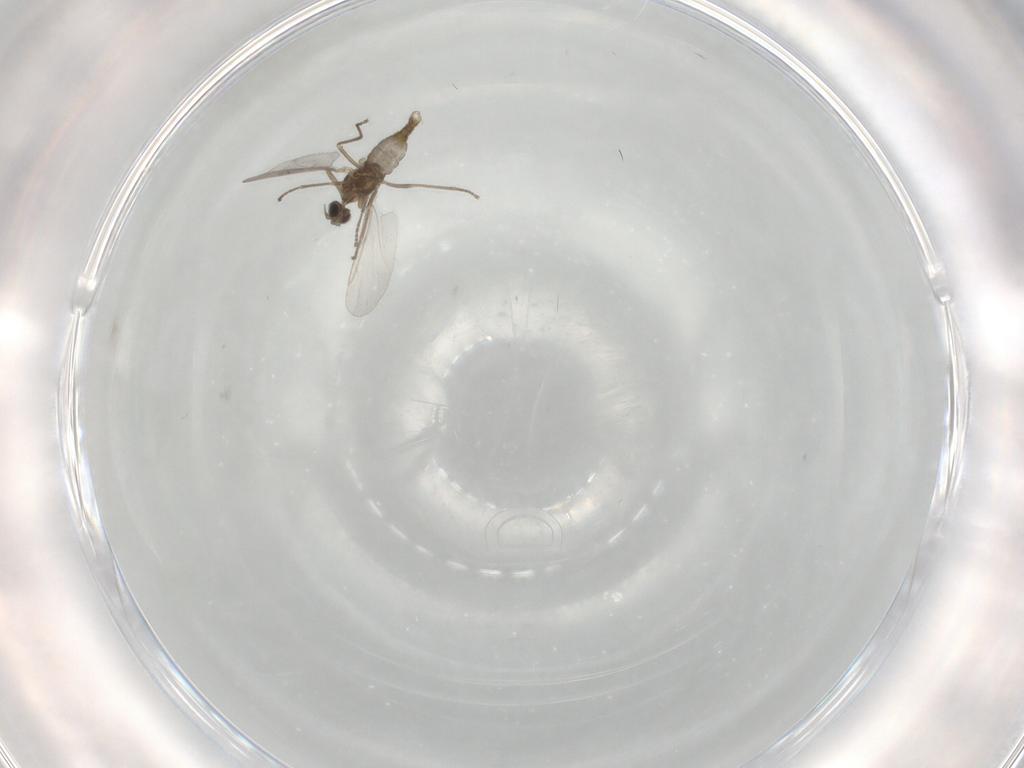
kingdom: Animalia
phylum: Arthropoda
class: Insecta
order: Diptera
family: Cecidomyiidae
